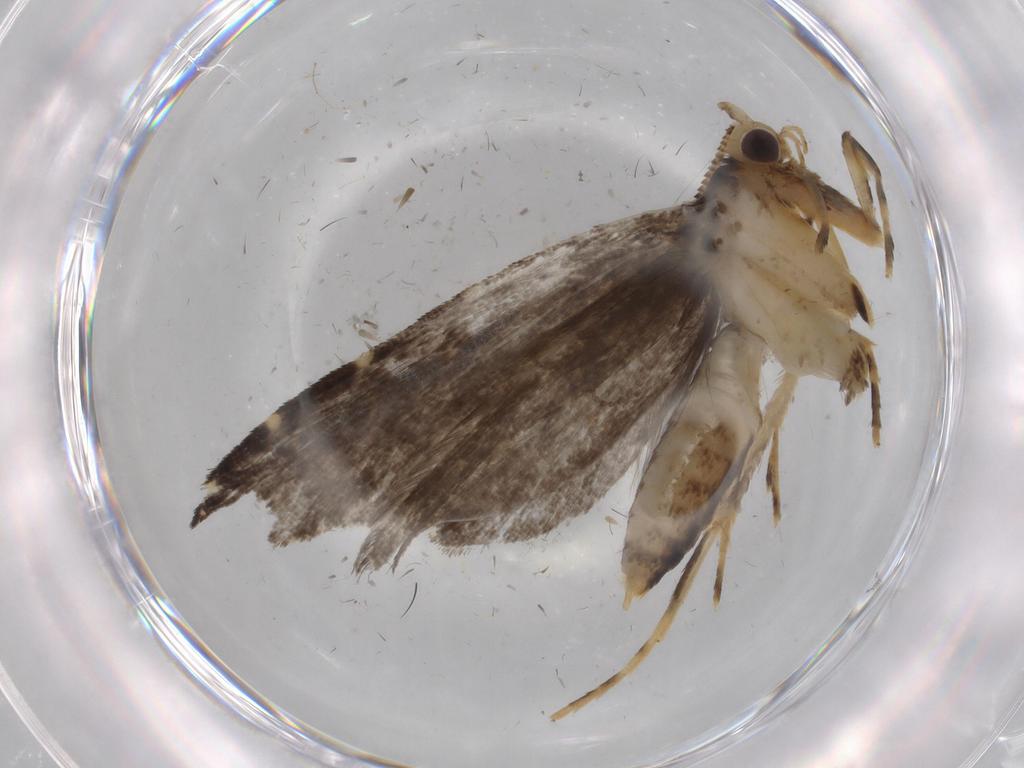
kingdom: Animalia
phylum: Arthropoda
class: Insecta
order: Lepidoptera
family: Tineidae
